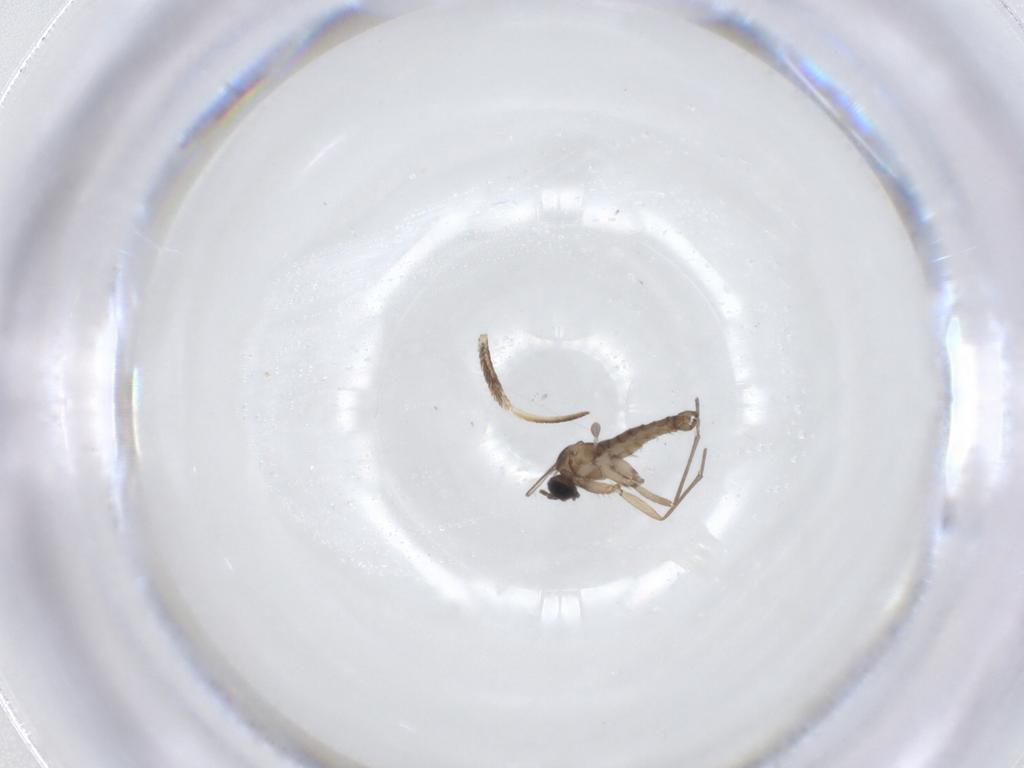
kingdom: Animalia
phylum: Arthropoda
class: Insecta
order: Diptera
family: Sciaridae
